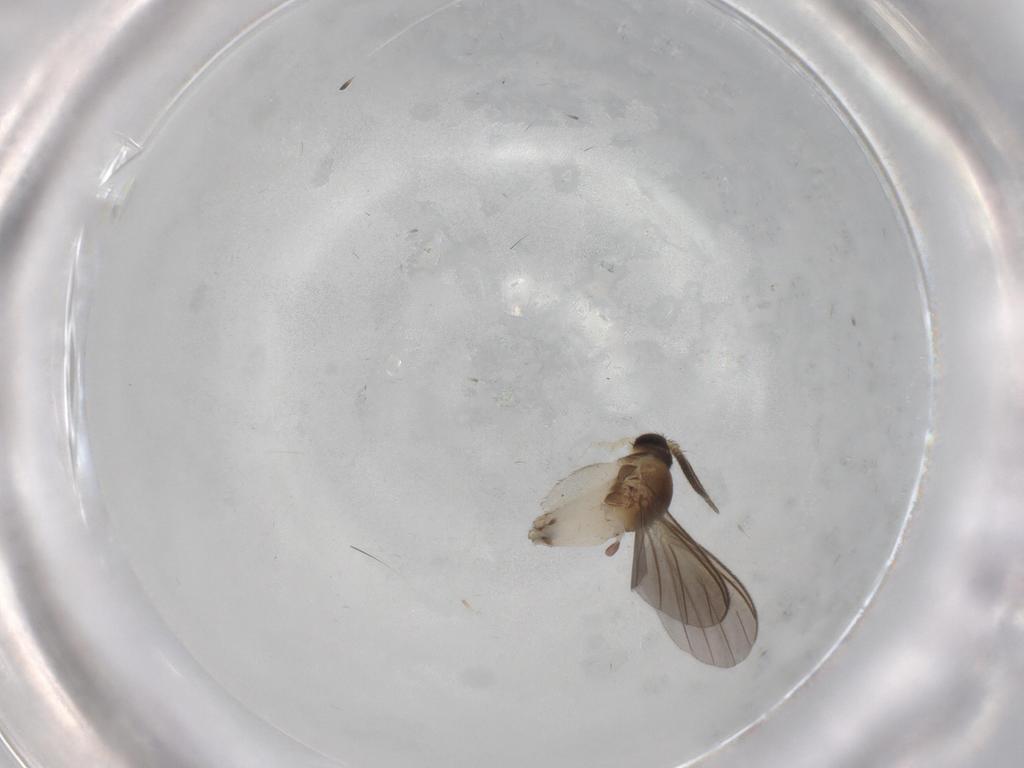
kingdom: Animalia
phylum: Arthropoda
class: Insecta
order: Diptera
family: Mycetophilidae
